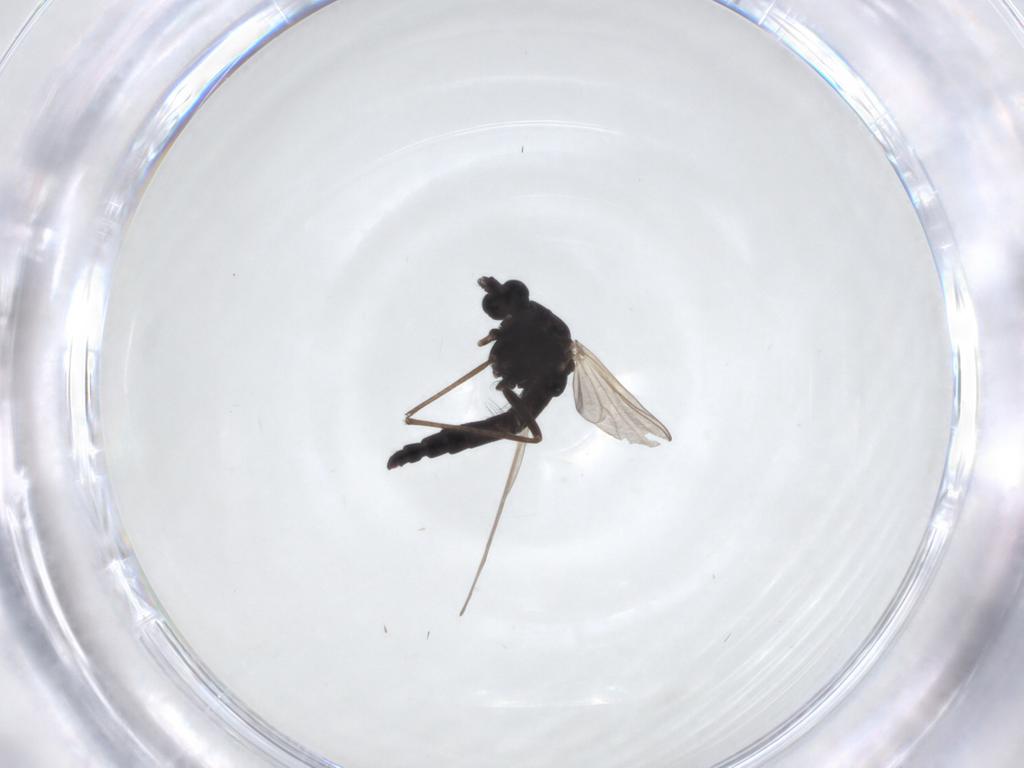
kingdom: Animalia
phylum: Arthropoda
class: Insecta
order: Diptera
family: Chironomidae
